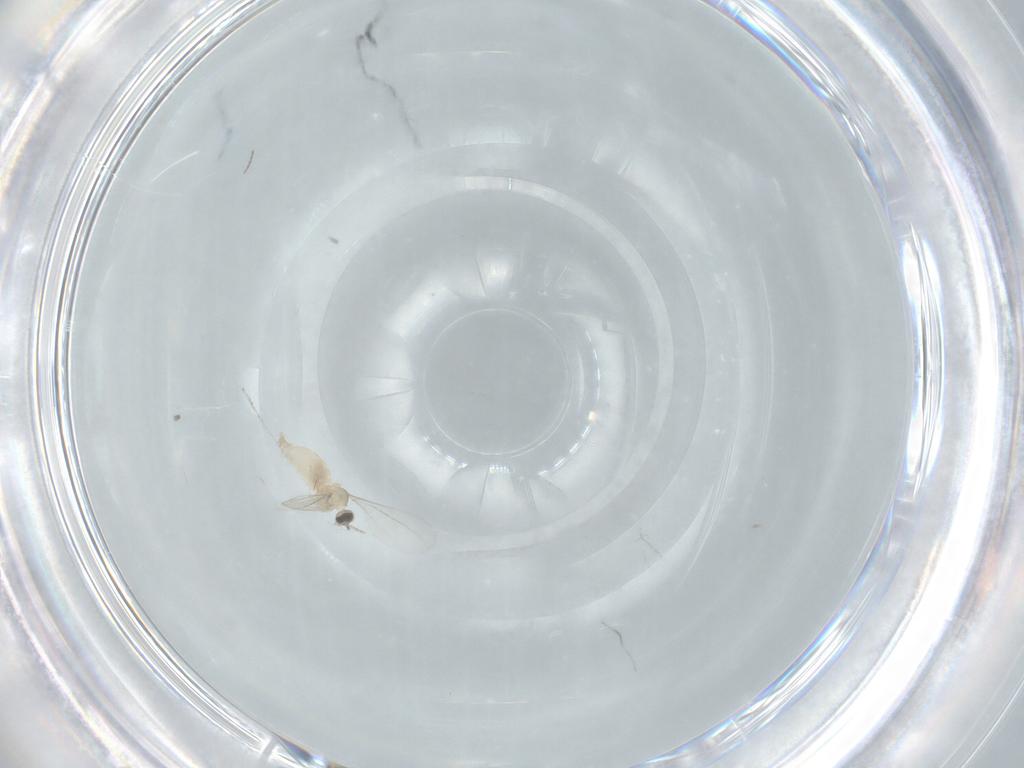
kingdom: Animalia
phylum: Arthropoda
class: Insecta
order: Diptera
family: Cecidomyiidae
